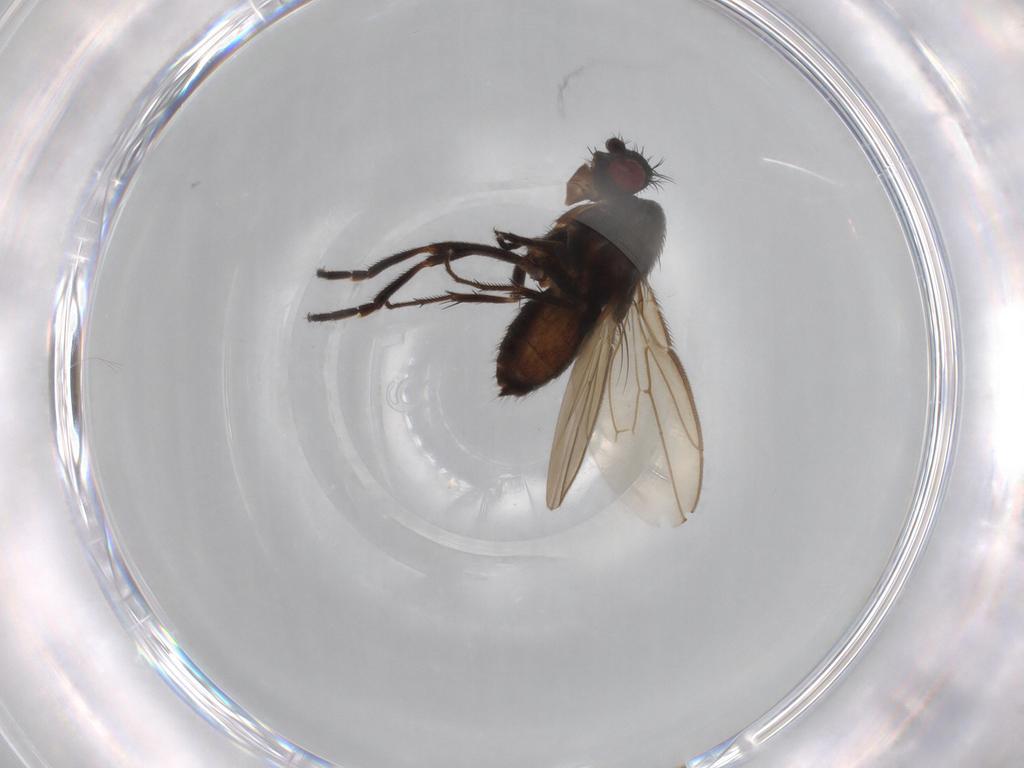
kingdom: Animalia
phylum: Arthropoda
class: Insecta
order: Diptera
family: Sphaeroceridae
